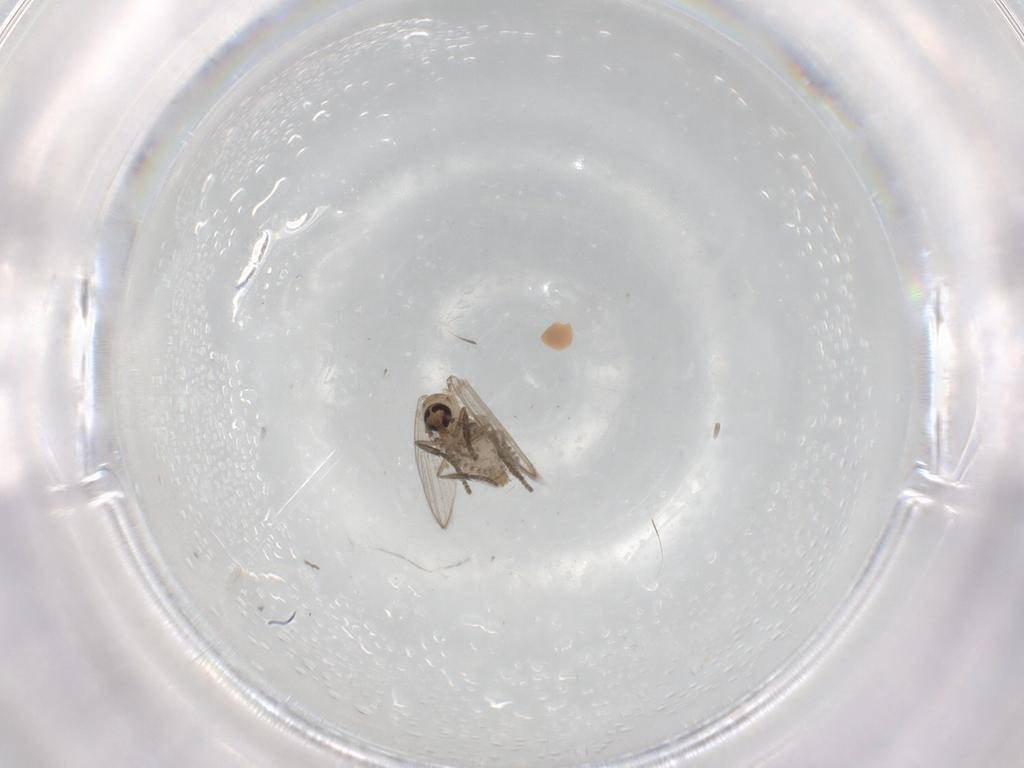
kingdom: Animalia
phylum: Arthropoda
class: Insecta
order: Diptera
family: Psychodidae
